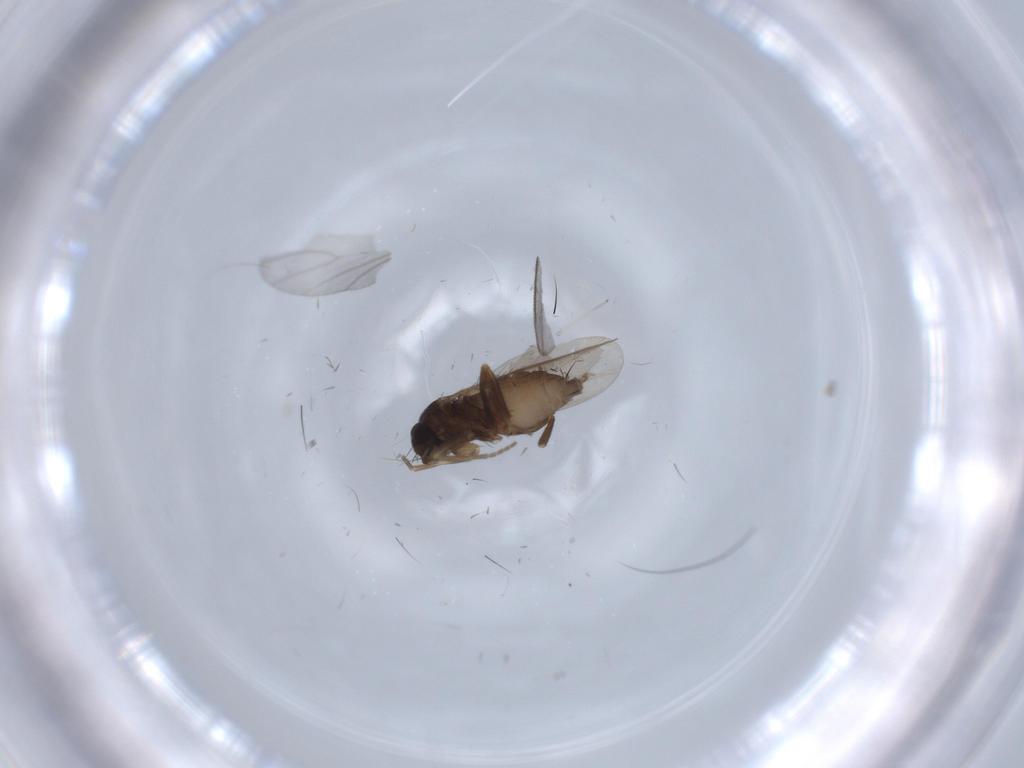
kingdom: Animalia
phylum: Arthropoda
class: Insecta
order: Diptera
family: Phoridae
